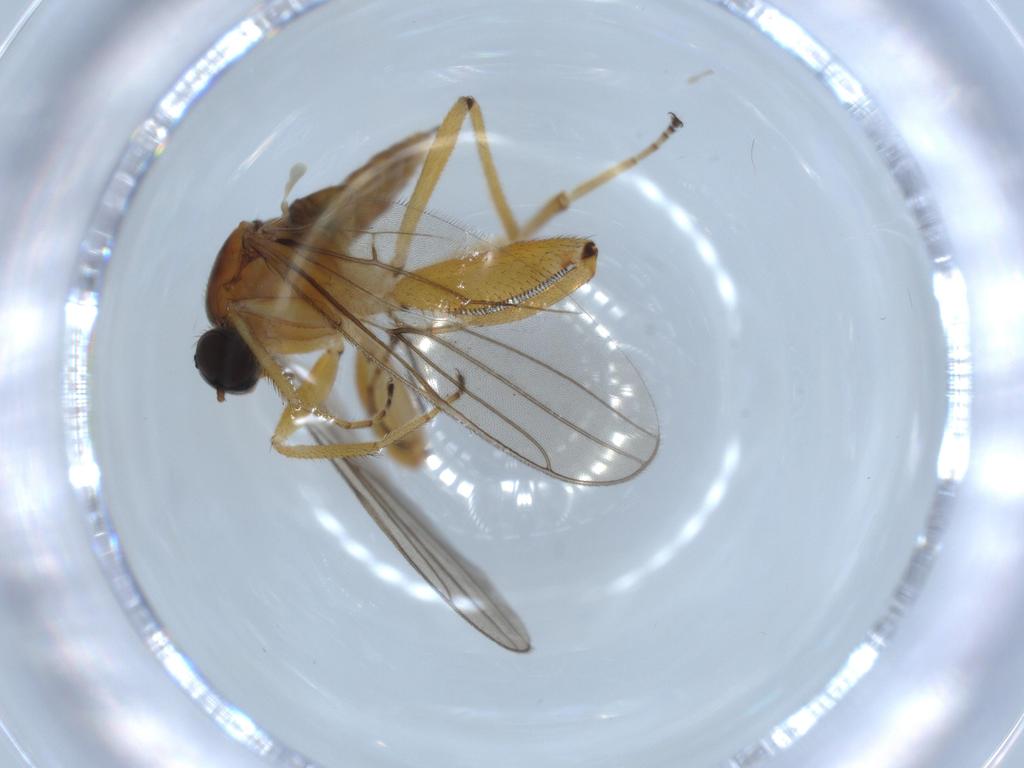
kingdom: Animalia
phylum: Arthropoda
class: Insecta
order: Diptera
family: Sciaridae
